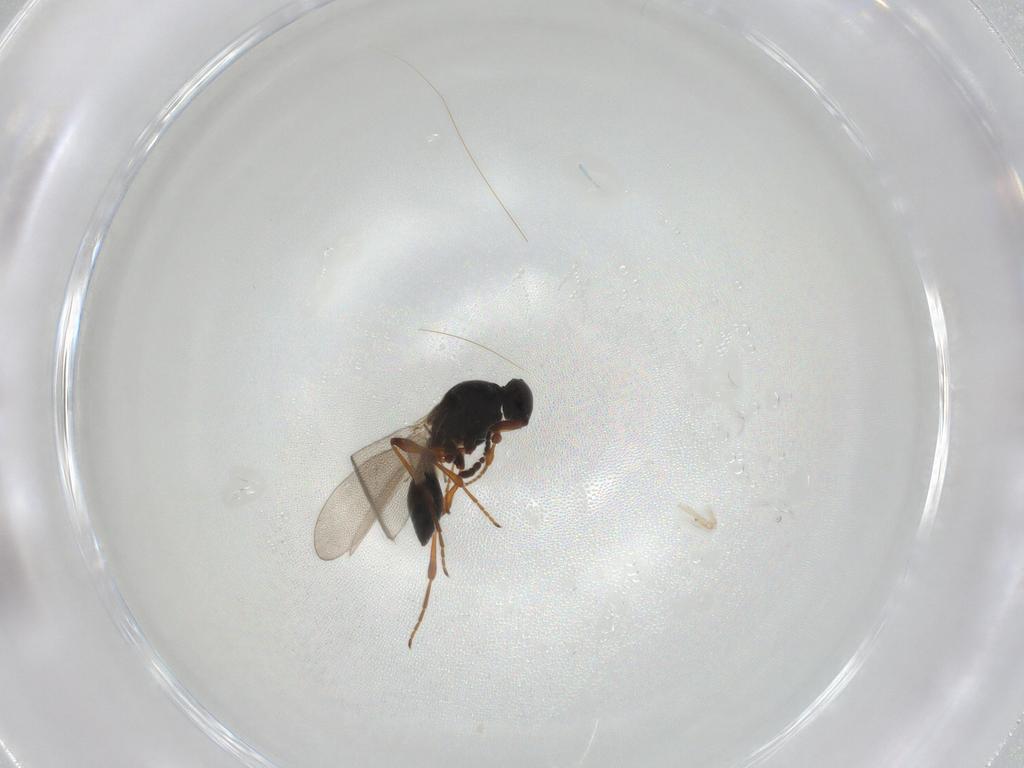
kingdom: Animalia
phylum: Arthropoda
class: Insecta
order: Hymenoptera
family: Platygastridae
